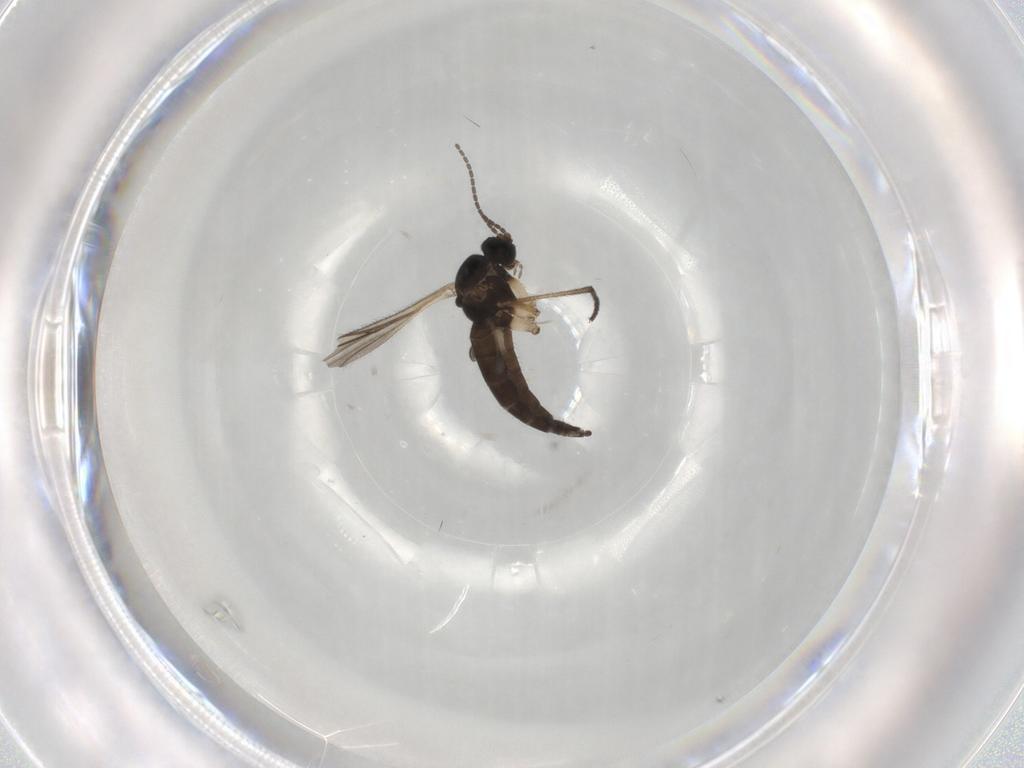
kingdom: Animalia
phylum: Arthropoda
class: Insecta
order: Diptera
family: Sciaridae
